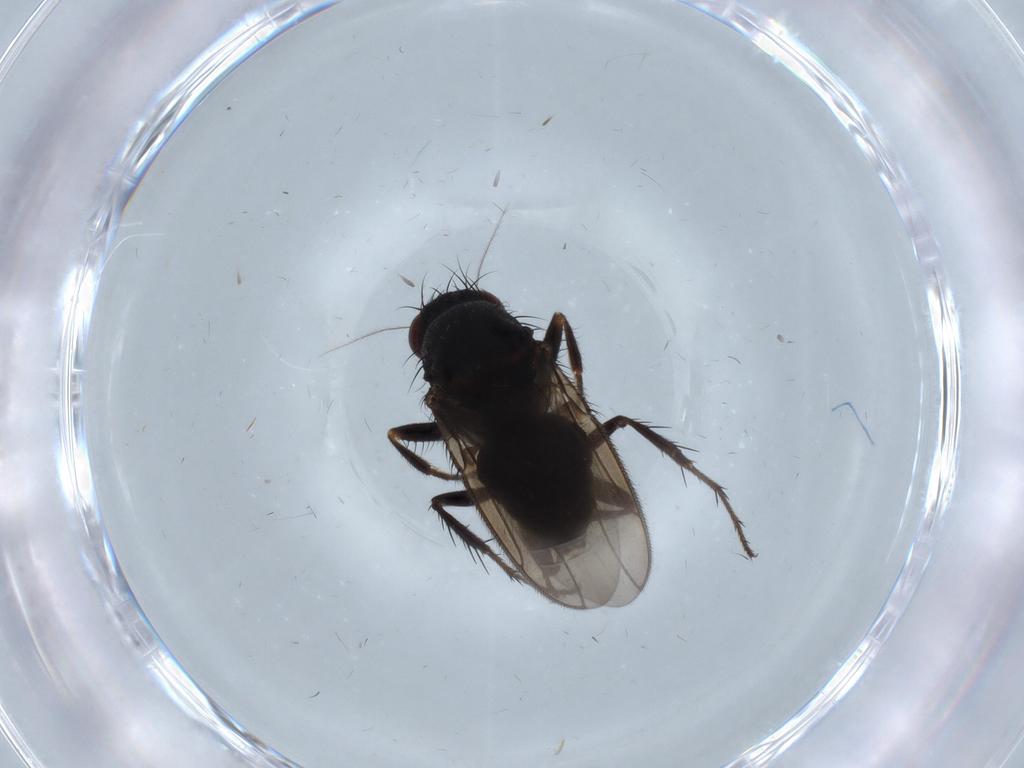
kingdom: Animalia
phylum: Arthropoda
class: Insecta
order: Diptera
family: Sphaeroceridae
